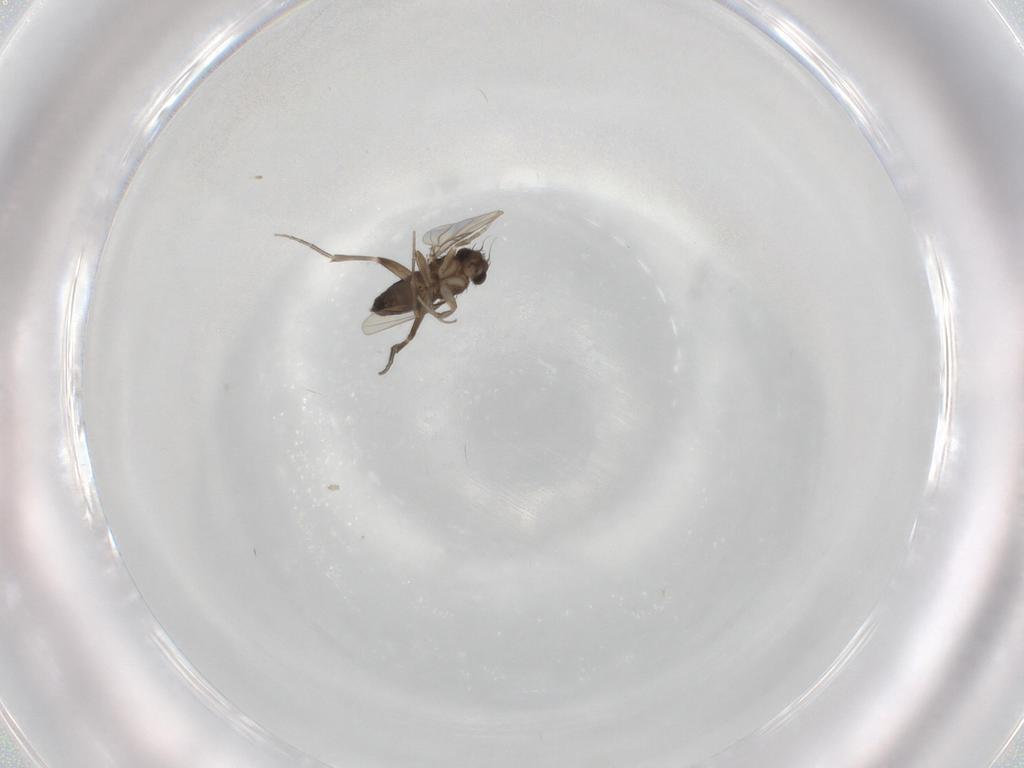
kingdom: Animalia
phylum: Arthropoda
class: Insecta
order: Diptera
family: Phoridae
